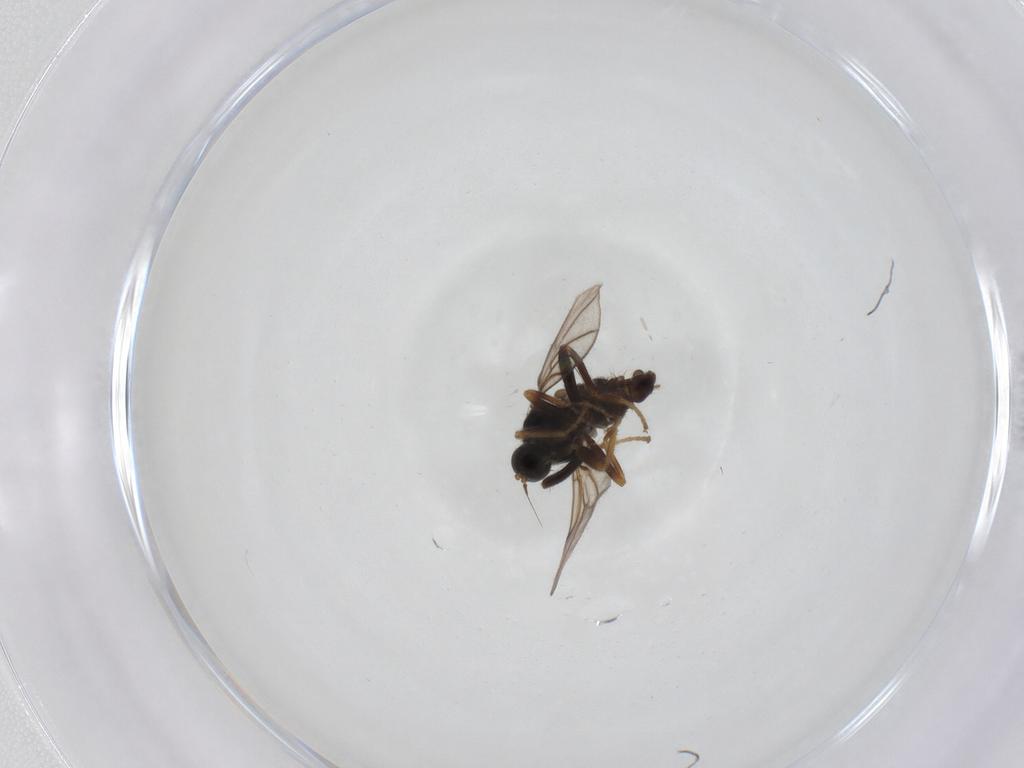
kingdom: Animalia
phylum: Arthropoda
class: Insecta
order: Diptera
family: Hybotidae
